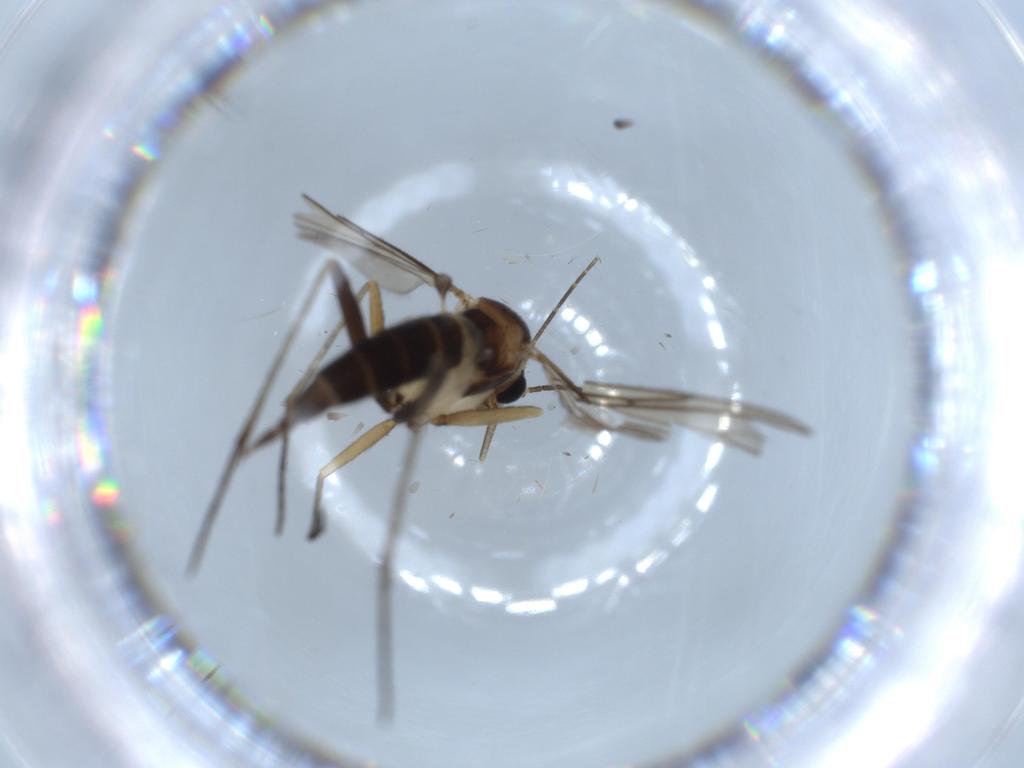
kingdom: Animalia
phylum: Arthropoda
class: Insecta
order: Diptera
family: Sciaridae
